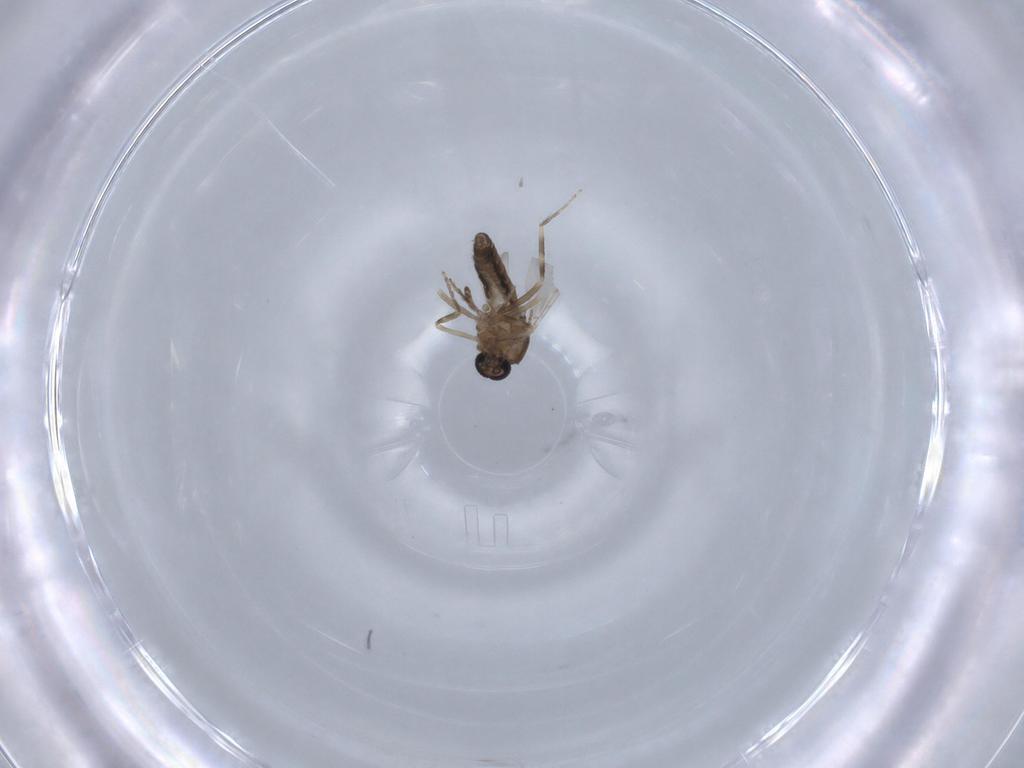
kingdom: Animalia
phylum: Arthropoda
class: Insecta
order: Diptera
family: Ceratopogonidae
